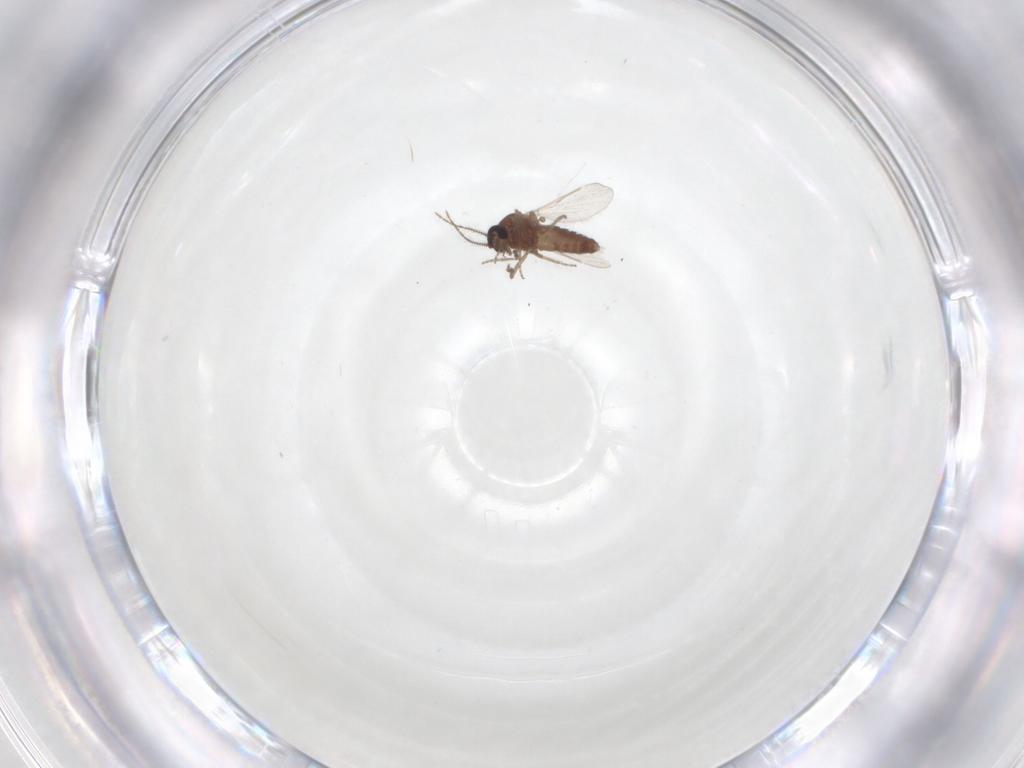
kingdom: Animalia
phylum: Arthropoda
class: Insecta
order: Diptera
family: Ceratopogonidae
